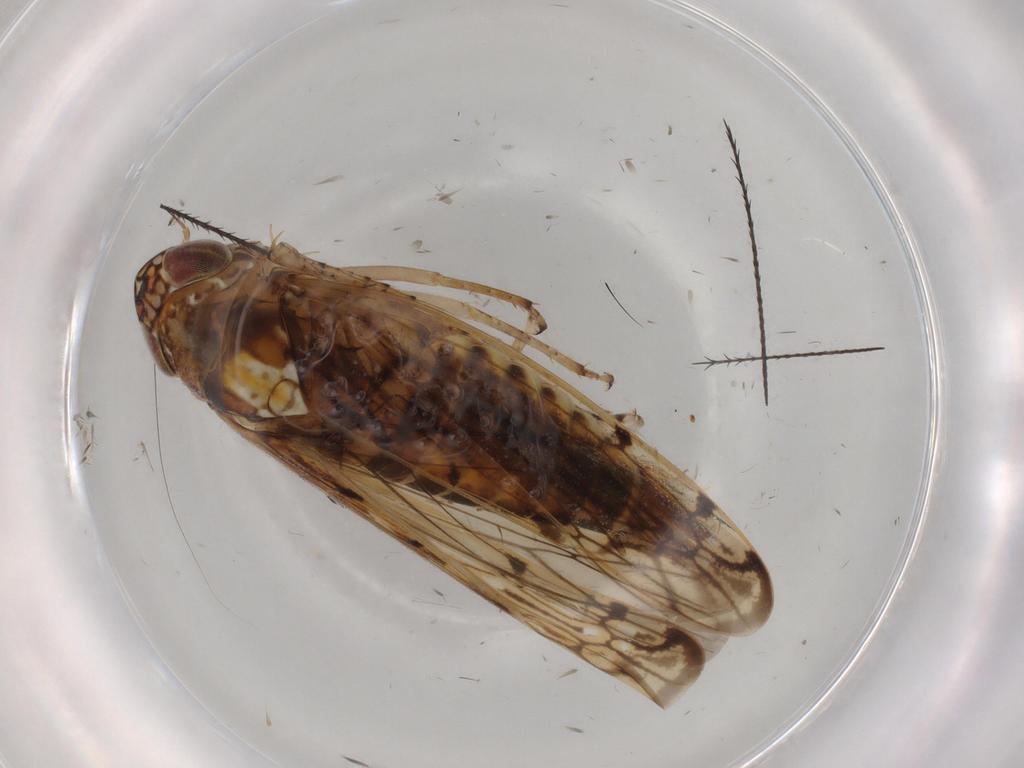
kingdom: Animalia
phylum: Arthropoda
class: Insecta
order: Hemiptera
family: Cicadellidae
